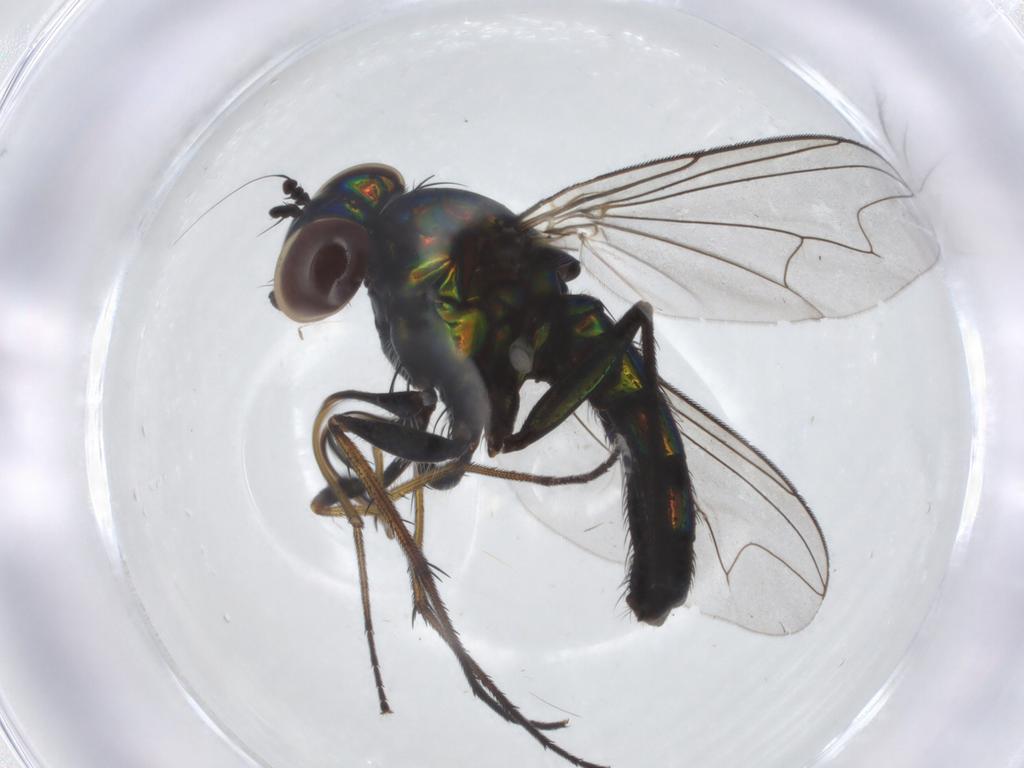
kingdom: Animalia
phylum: Arthropoda
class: Insecta
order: Diptera
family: Dolichopodidae
